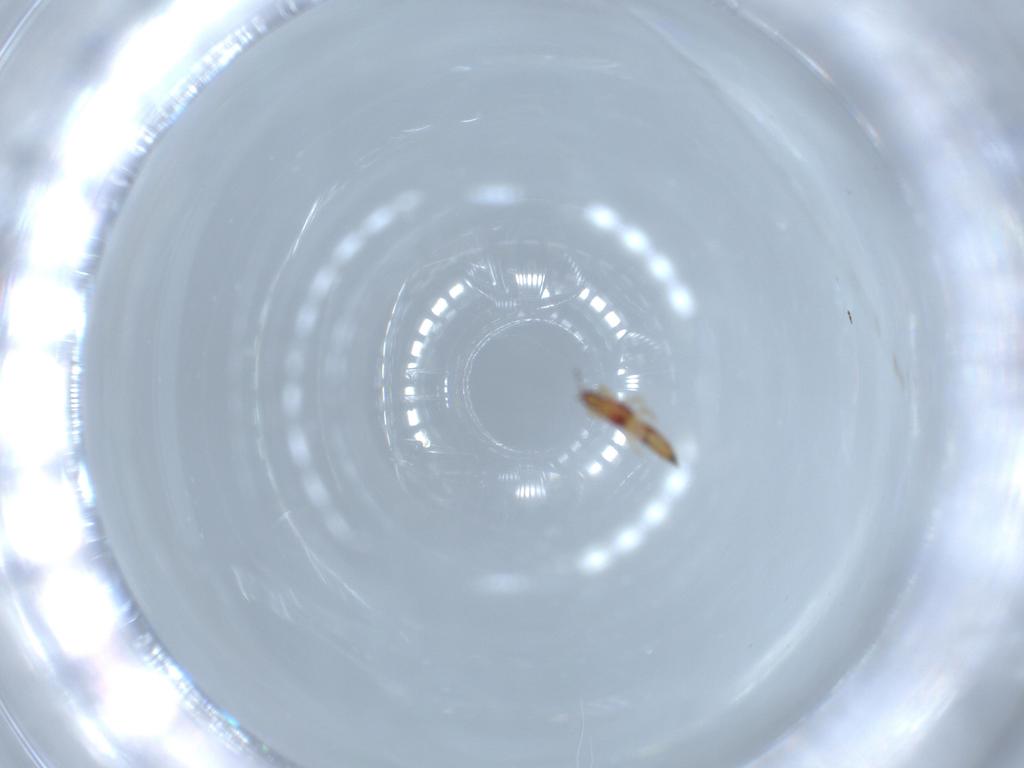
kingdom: Animalia
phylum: Arthropoda
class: Insecta
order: Thysanoptera
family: Phlaeothripidae
